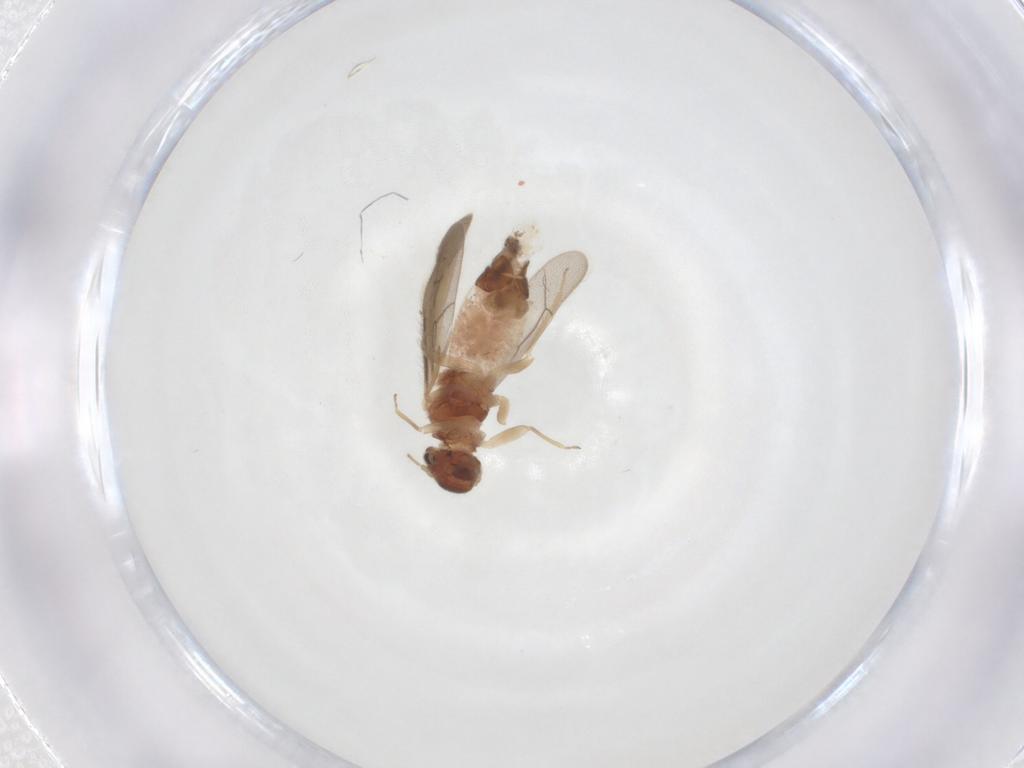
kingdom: Animalia
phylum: Arthropoda
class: Insecta
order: Psocodea
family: Archipsocidae
